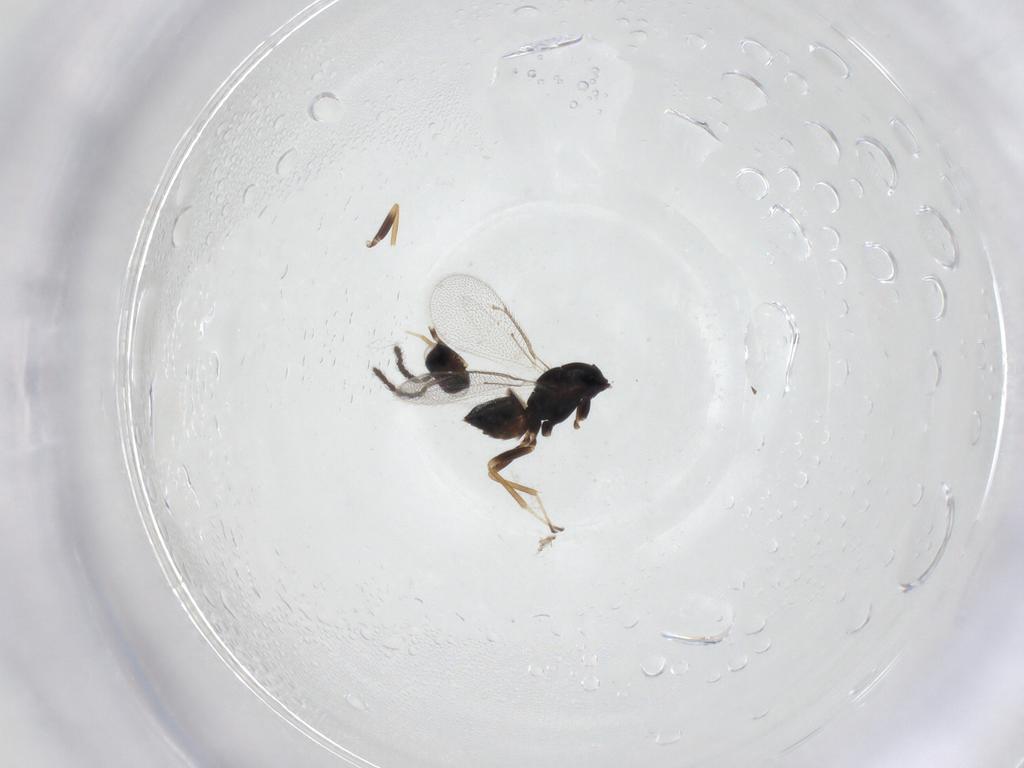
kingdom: Animalia
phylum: Arthropoda
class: Insecta
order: Hymenoptera
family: Eulophidae
